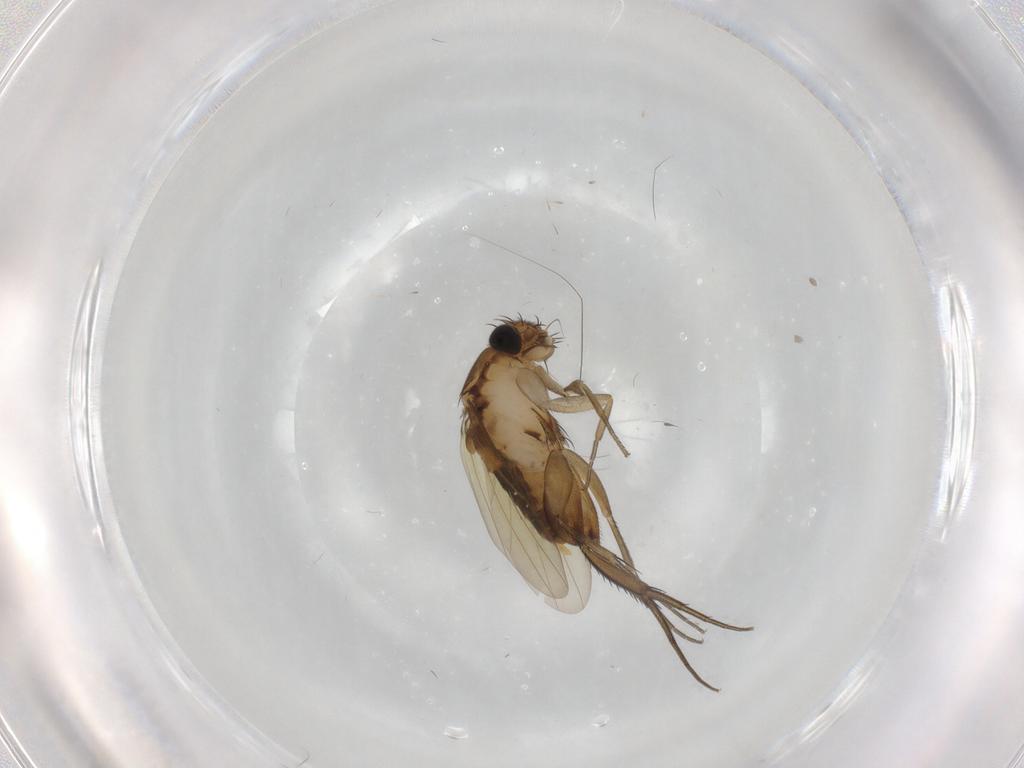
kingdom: Animalia
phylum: Arthropoda
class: Insecta
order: Diptera
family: Limoniidae
